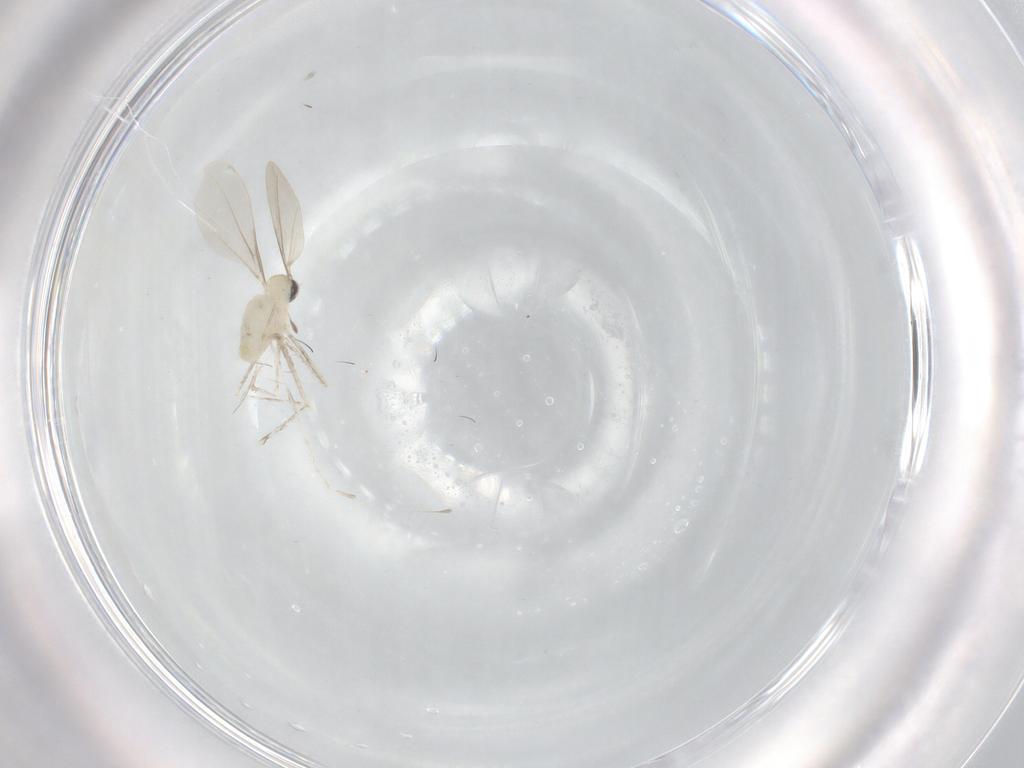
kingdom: Animalia
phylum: Arthropoda
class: Insecta
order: Diptera
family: Cecidomyiidae
